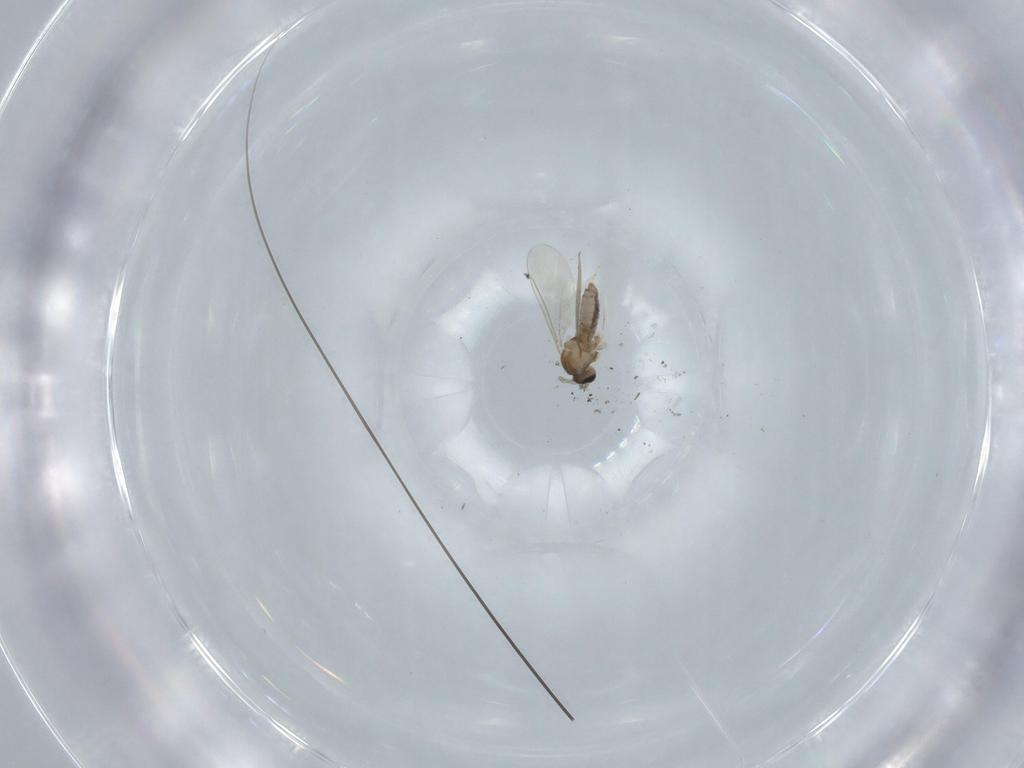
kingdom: Animalia
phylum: Arthropoda
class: Insecta
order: Diptera
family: Cecidomyiidae
